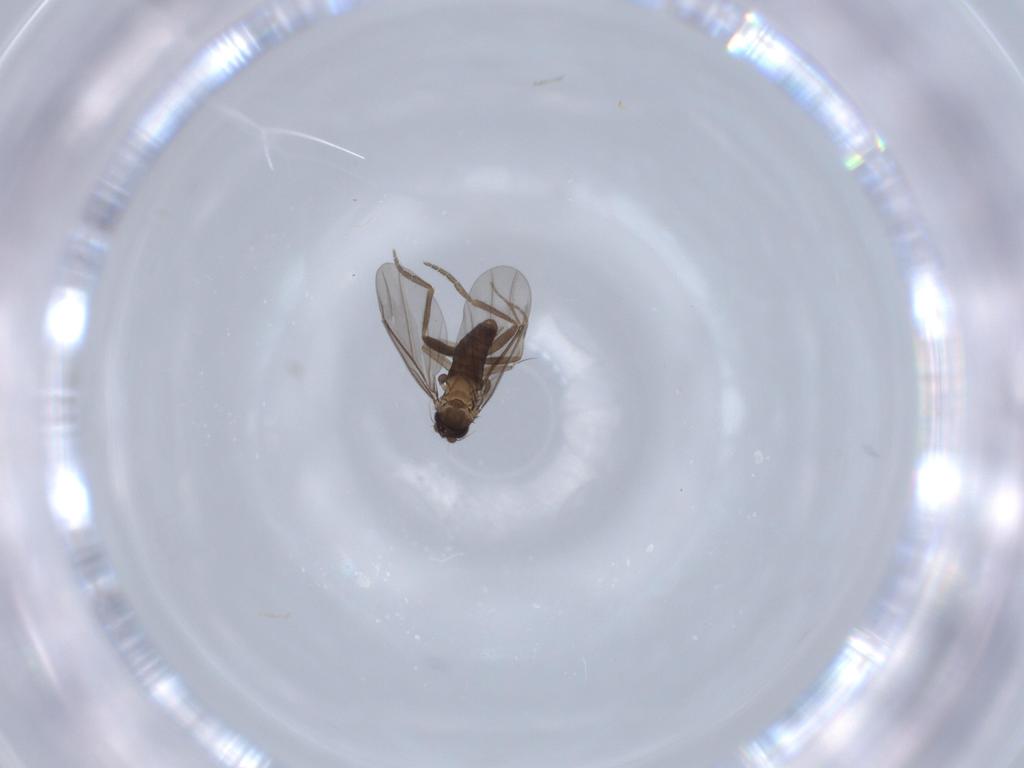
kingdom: Animalia
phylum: Arthropoda
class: Insecta
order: Diptera
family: Phoridae
